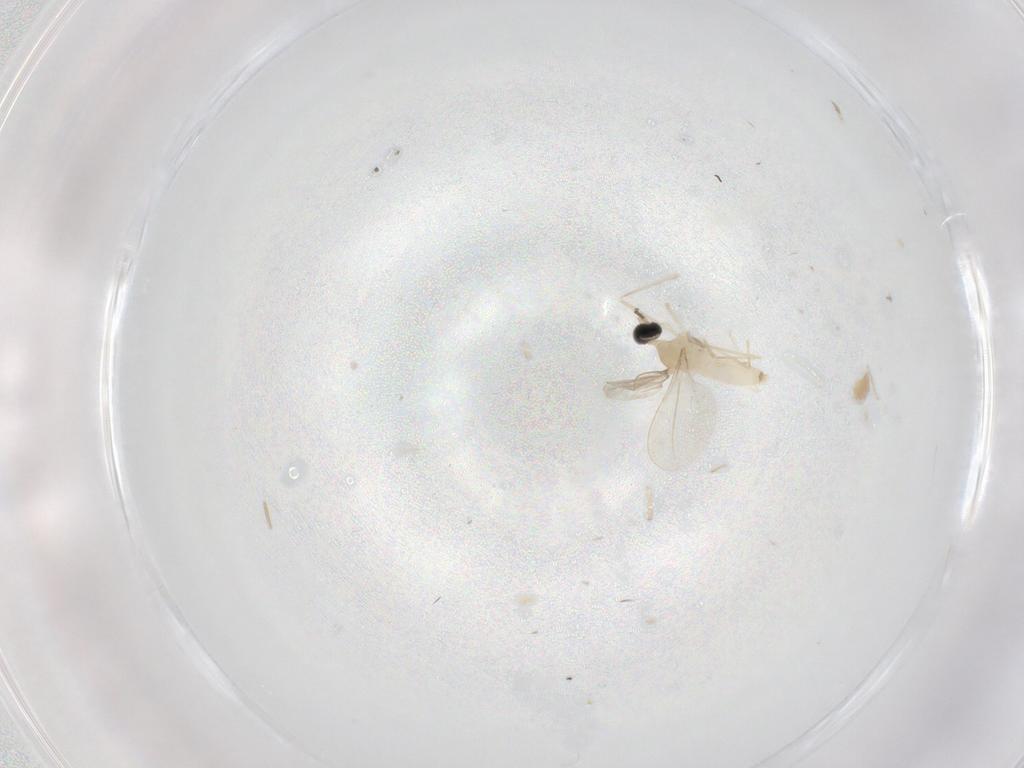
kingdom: Animalia
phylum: Arthropoda
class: Insecta
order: Diptera
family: Cecidomyiidae
